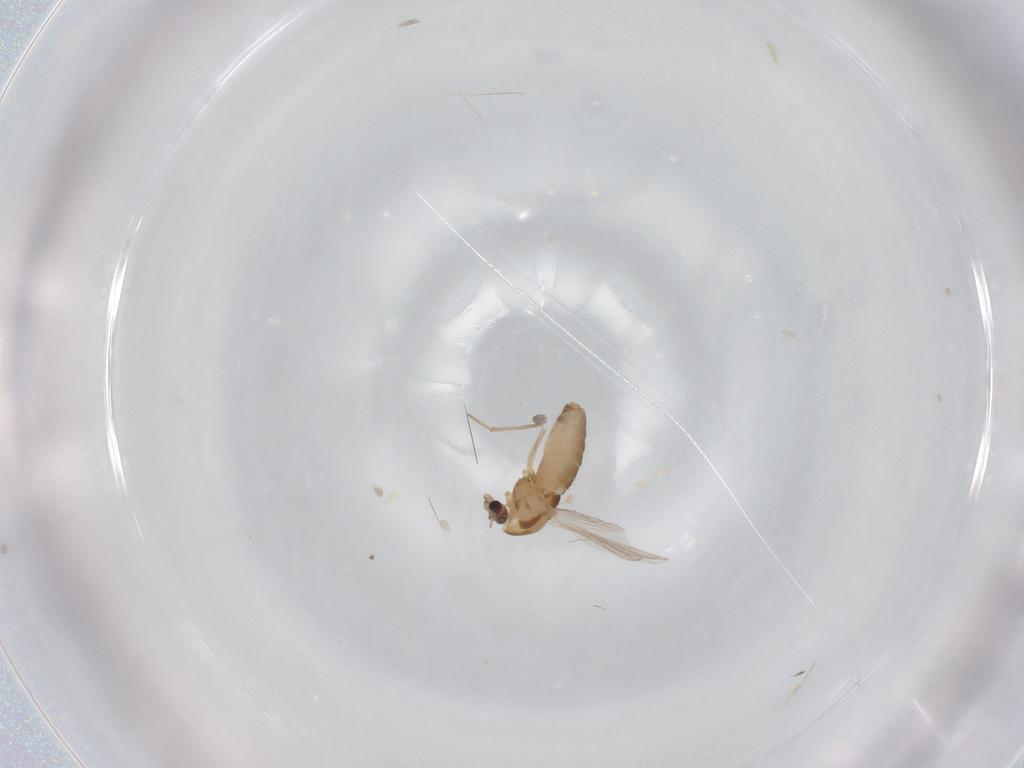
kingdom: Animalia
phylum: Arthropoda
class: Insecta
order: Diptera
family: Chironomidae
